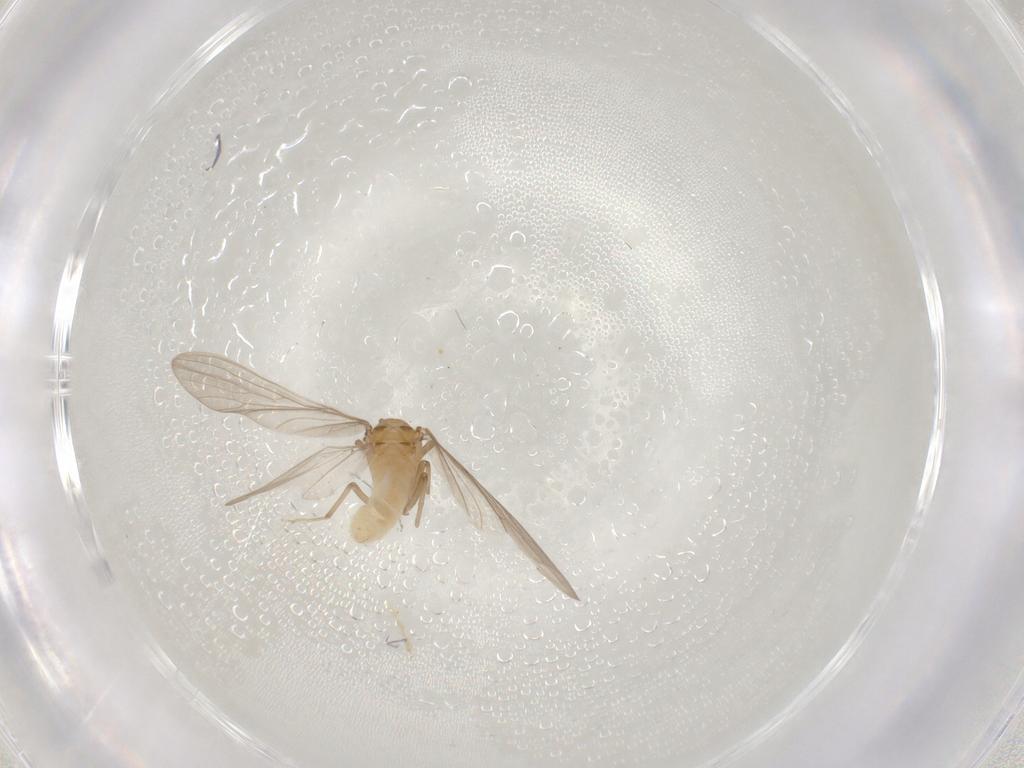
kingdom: Animalia
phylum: Arthropoda
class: Insecta
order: Neuroptera
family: Coniopterygidae
